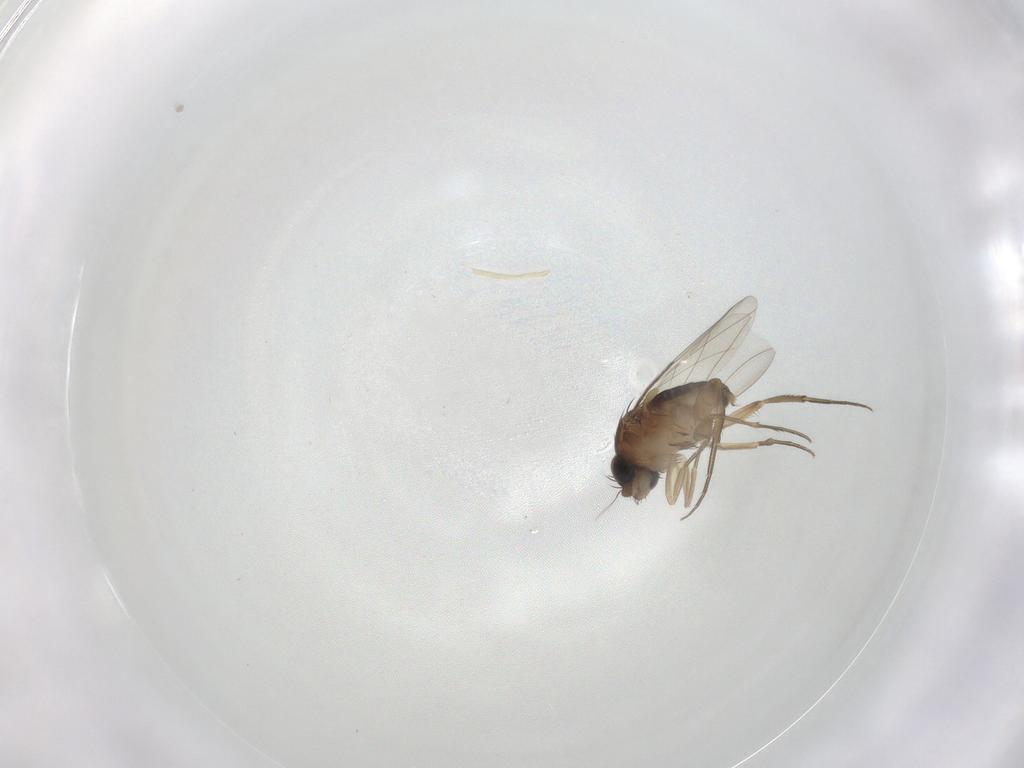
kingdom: Animalia
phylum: Arthropoda
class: Insecta
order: Diptera
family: Sciaridae
